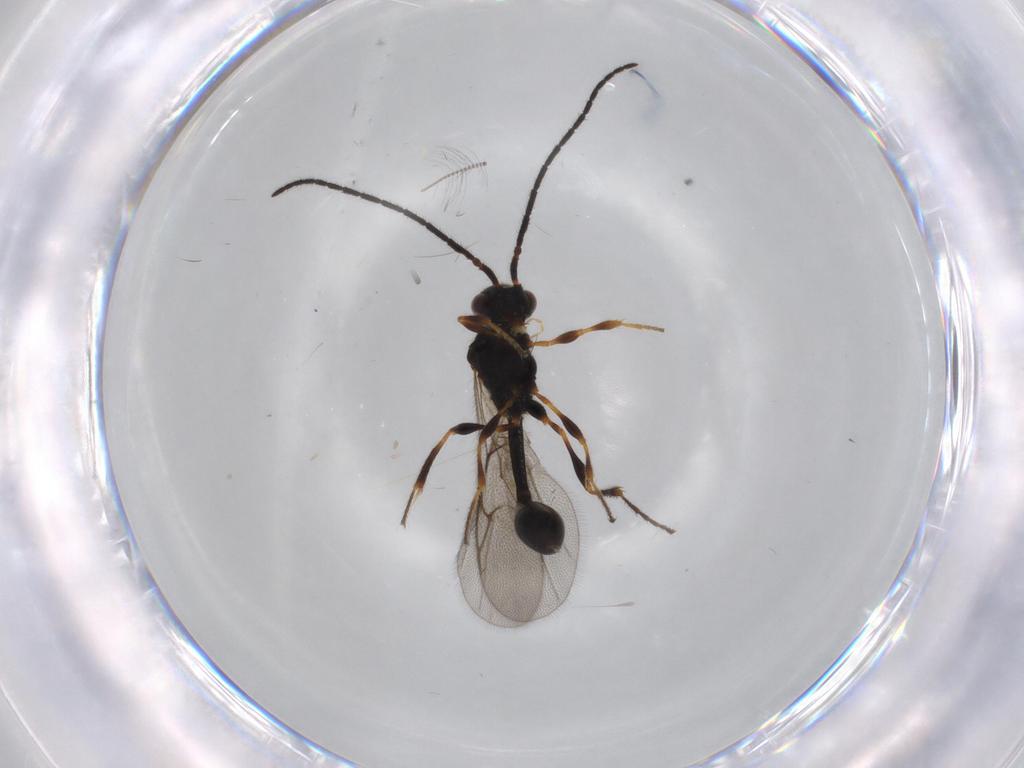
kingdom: Animalia
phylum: Arthropoda
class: Insecta
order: Hymenoptera
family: Diapriidae
